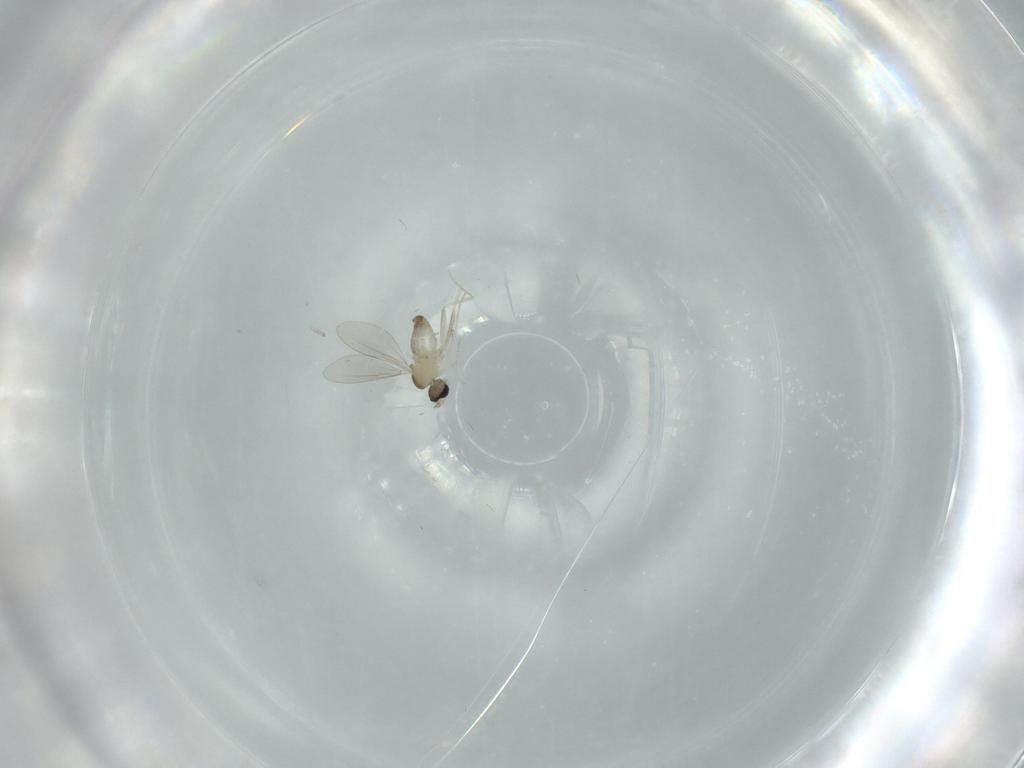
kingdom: Animalia
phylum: Arthropoda
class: Insecta
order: Diptera
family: Cecidomyiidae
